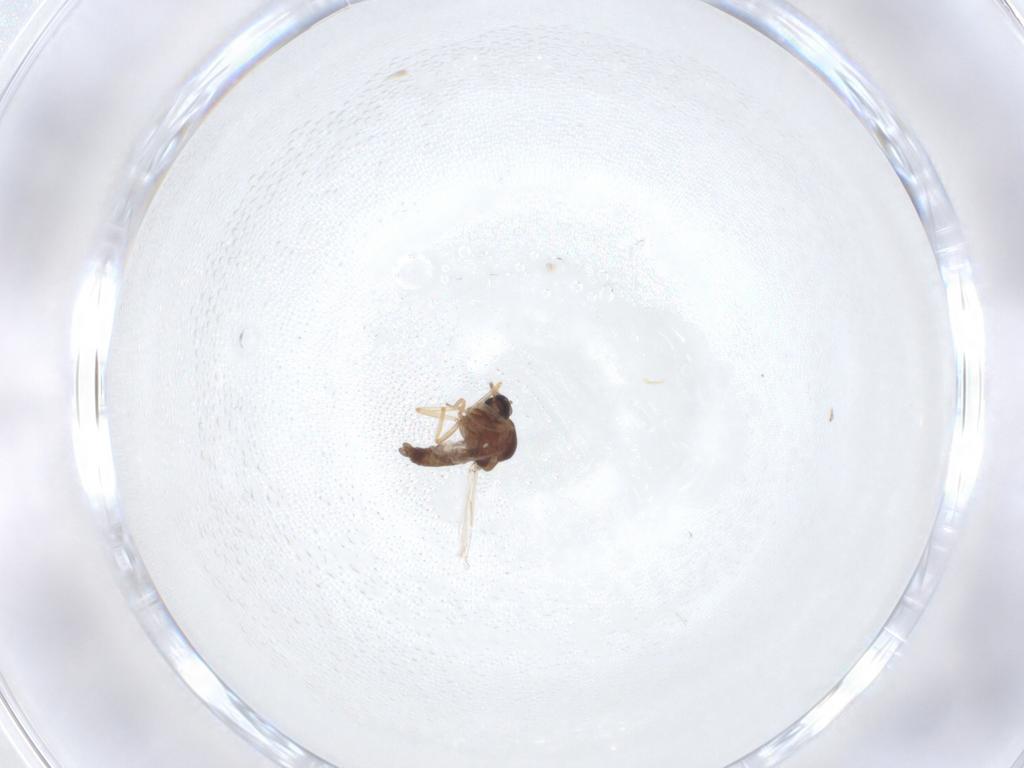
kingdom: Animalia
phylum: Arthropoda
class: Insecta
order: Diptera
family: Ceratopogonidae
